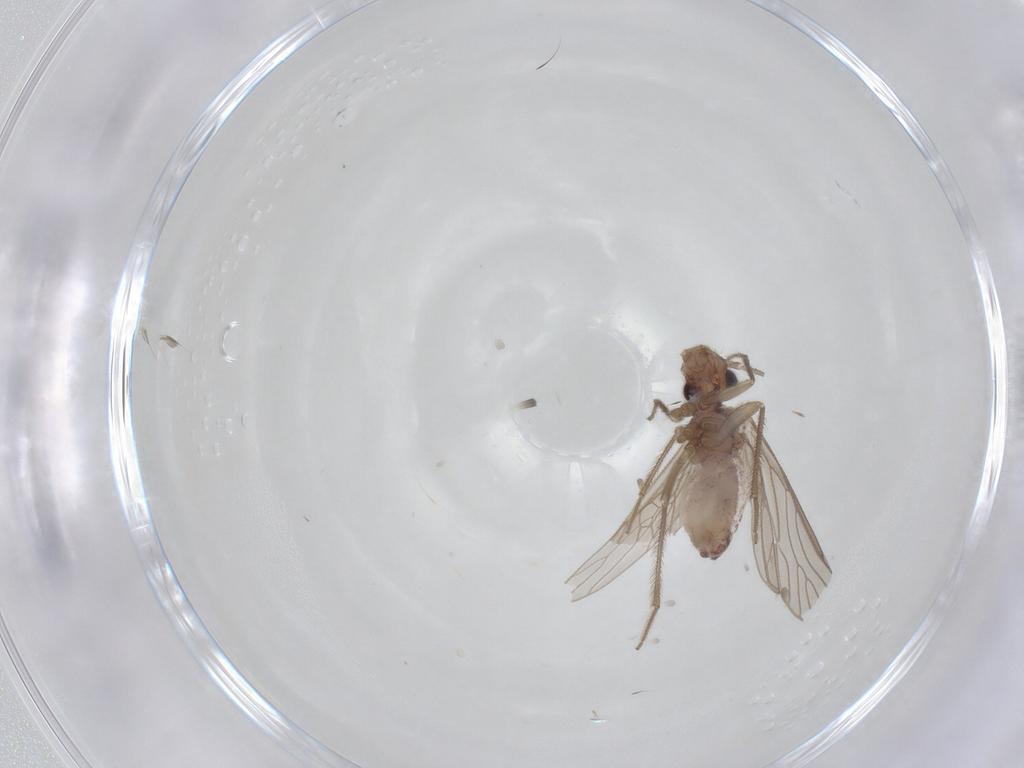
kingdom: Animalia
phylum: Arthropoda
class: Insecta
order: Psocodea
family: Cladiopsocidae
